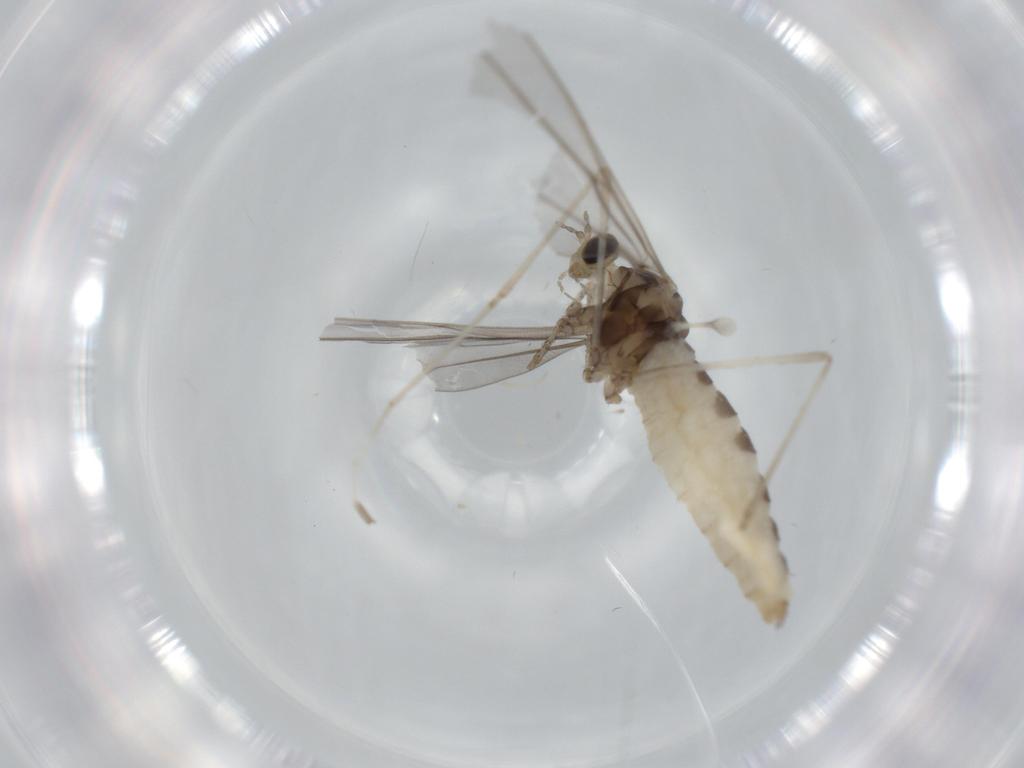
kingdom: Animalia
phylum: Arthropoda
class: Insecta
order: Diptera
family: Cecidomyiidae
